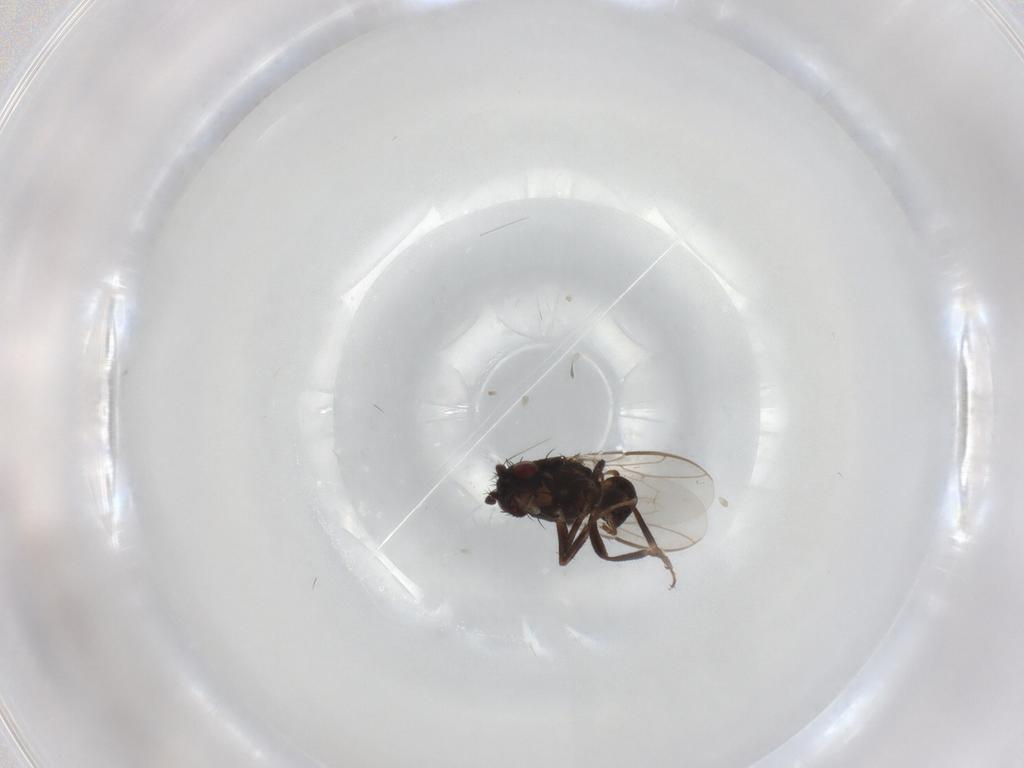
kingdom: Animalia
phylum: Arthropoda
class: Insecta
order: Diptera
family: Sphaeroceridae
